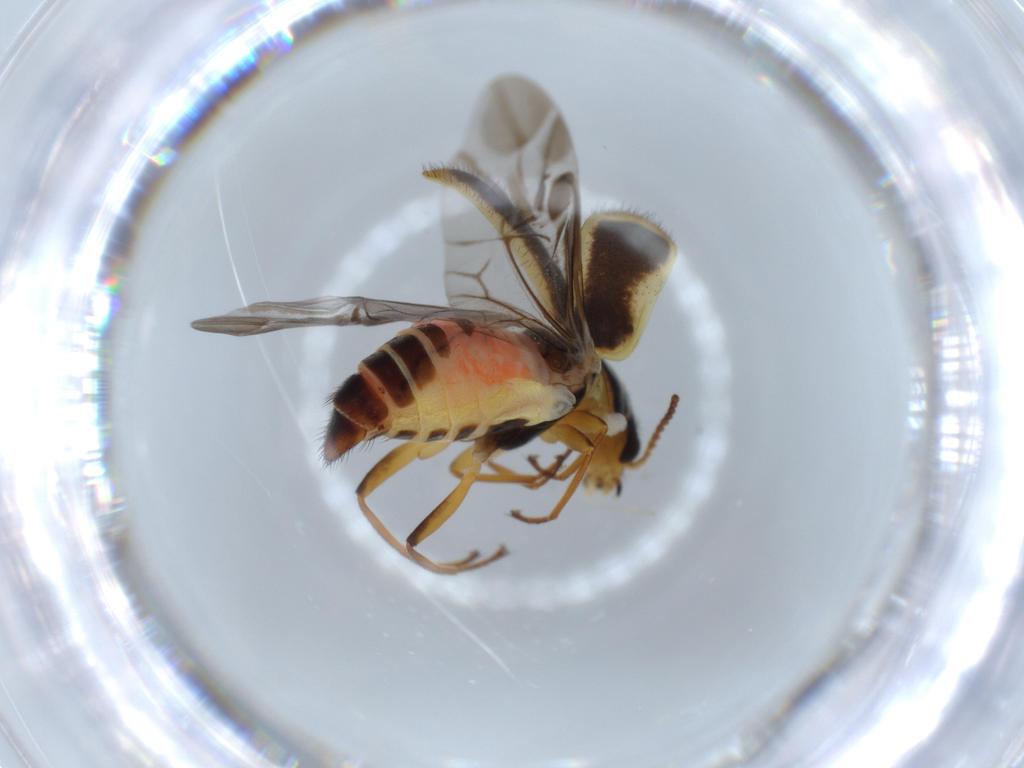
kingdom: Animalia
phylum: Arthropoda
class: Insecta
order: Coleoptera
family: Melyridae
